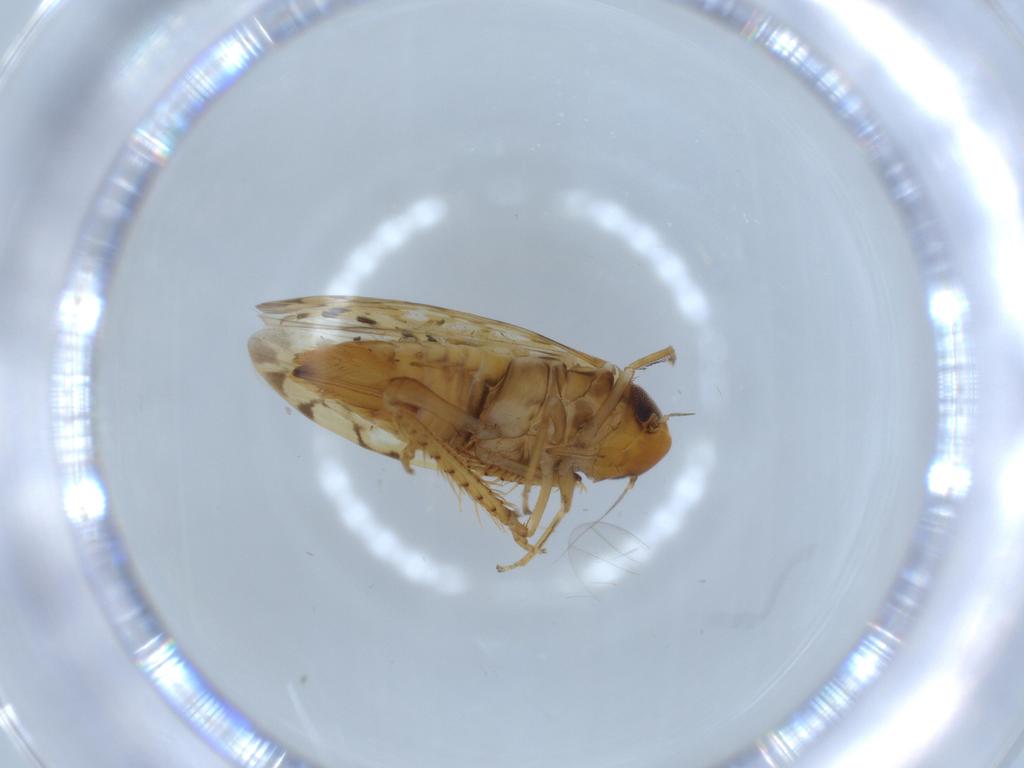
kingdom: Animalia
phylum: Arthropoda
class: Insecta
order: Hemiptera
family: Cicadellidae
